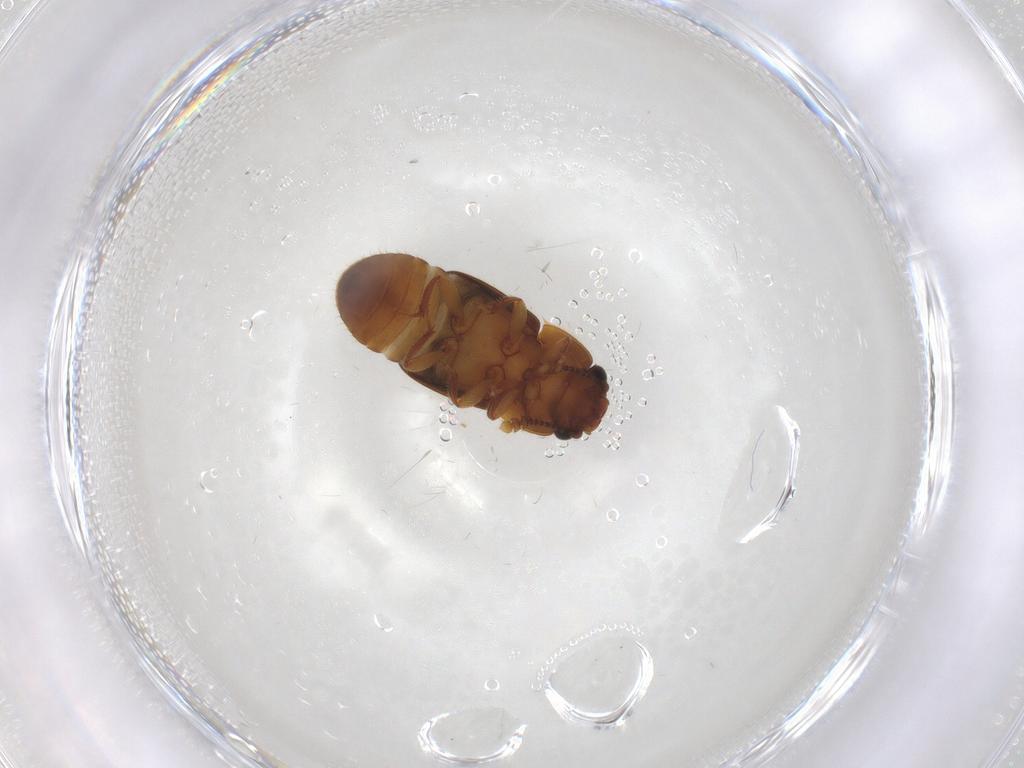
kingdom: Animalia
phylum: Arthropoda
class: Insecta
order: Coleoptera
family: Nitidulidae
